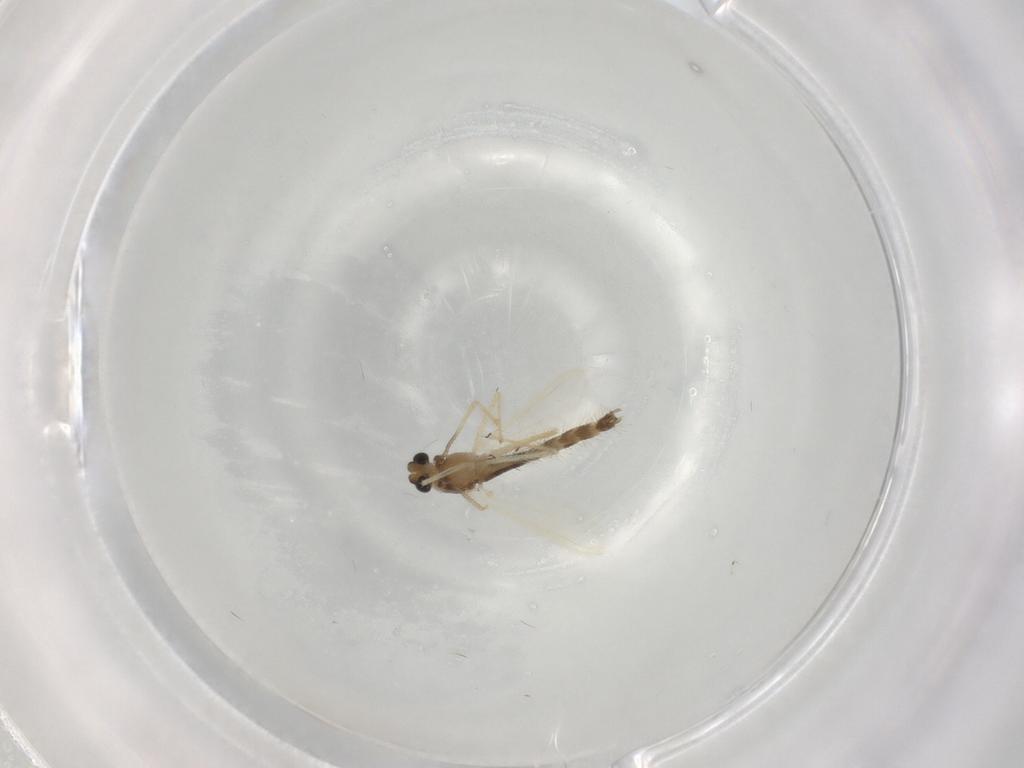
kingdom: Animalia
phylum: Arthropoda
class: Insecta
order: Diptera
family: Chironomidae
